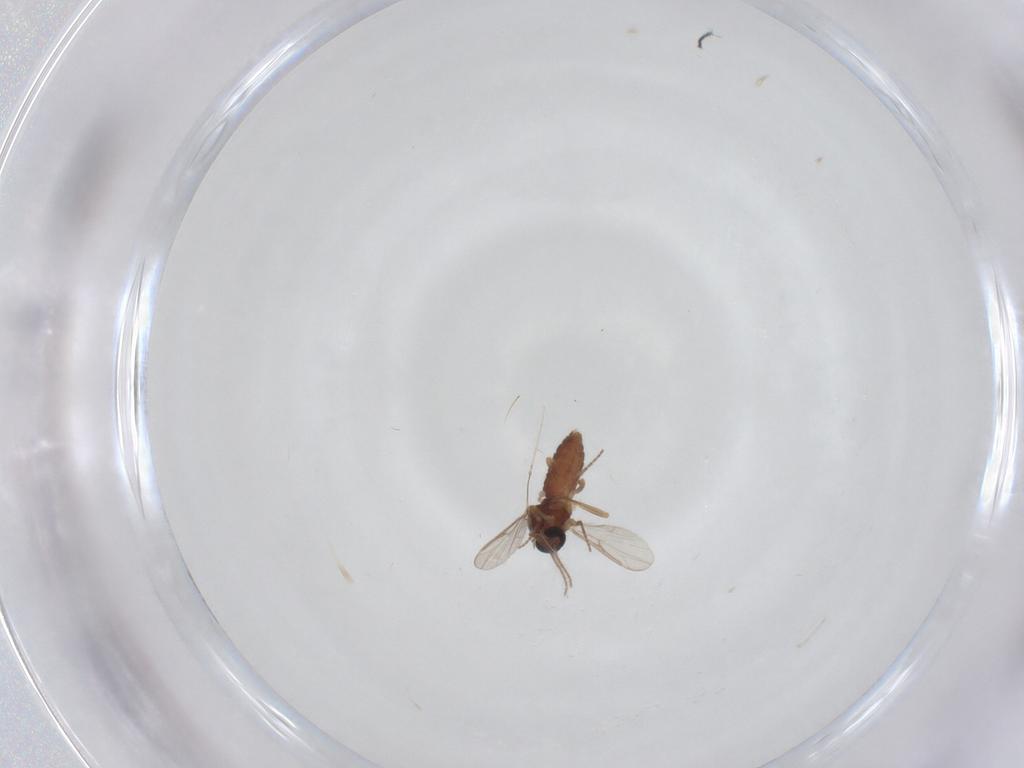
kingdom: Animalia
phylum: Arthropoda
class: Insecta
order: Diptera
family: Ceratopogonidae
